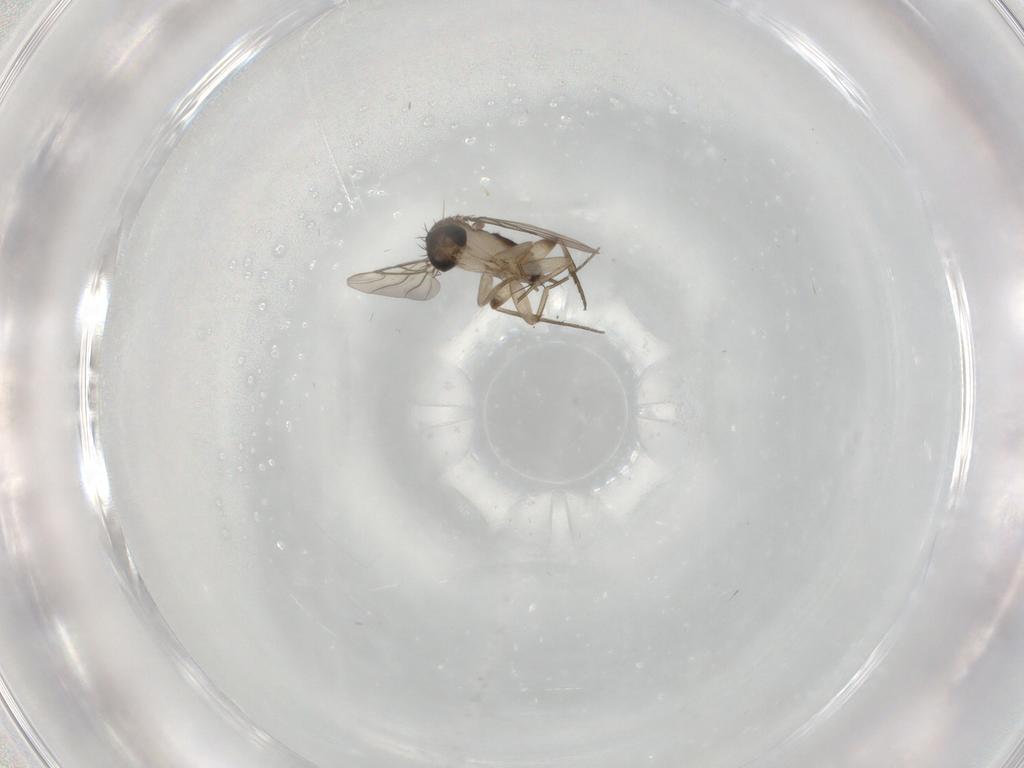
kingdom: Animalia
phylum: Arthropoda
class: Insecta
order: Diptera
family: Phoridae
